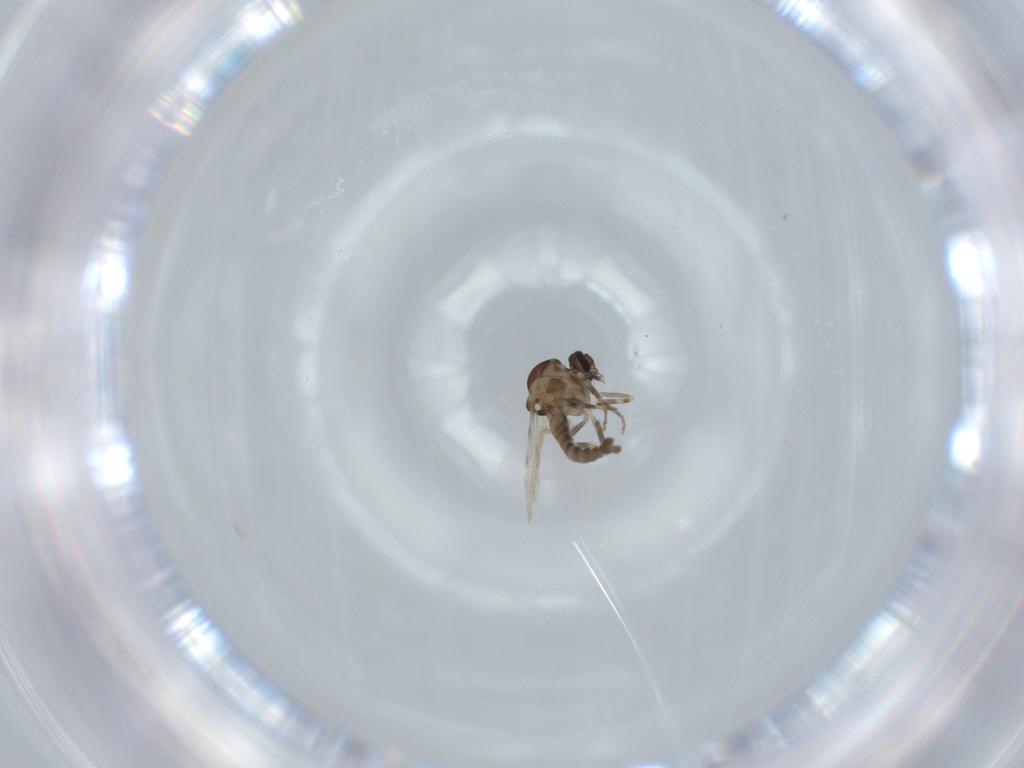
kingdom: Animalia
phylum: Arthropoda
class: Insecta
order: Diptera
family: Ceratopogonidae
